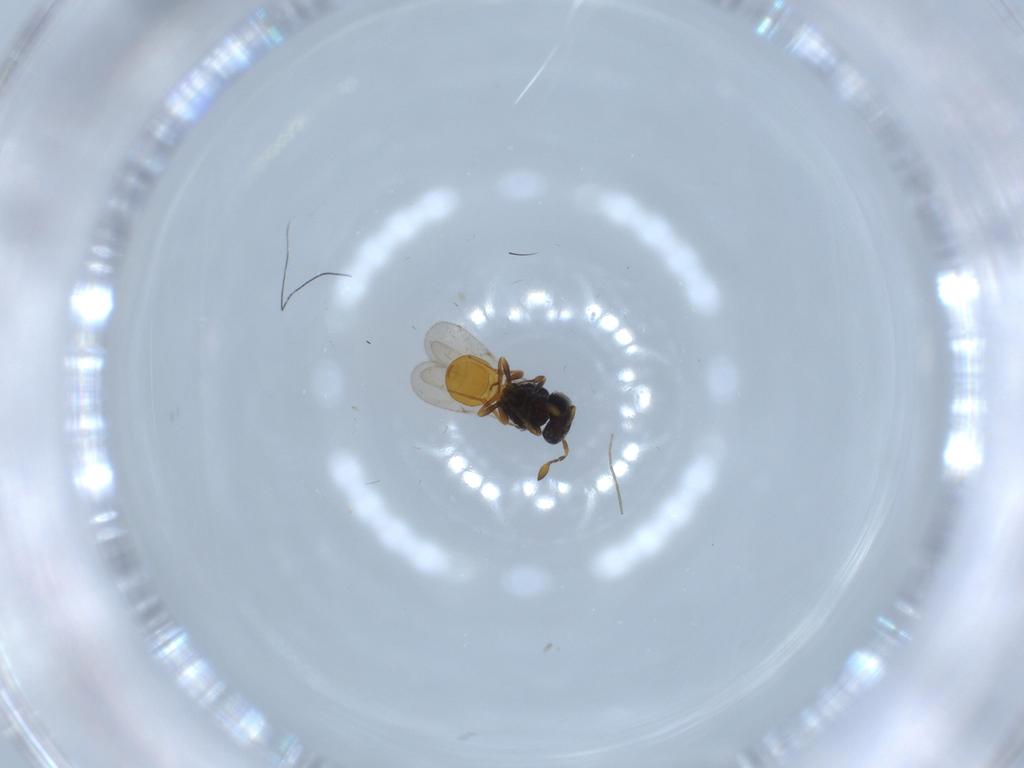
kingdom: Animalia
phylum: Arthropoda
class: Insecta
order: Hymenoptera
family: Scelionidae
